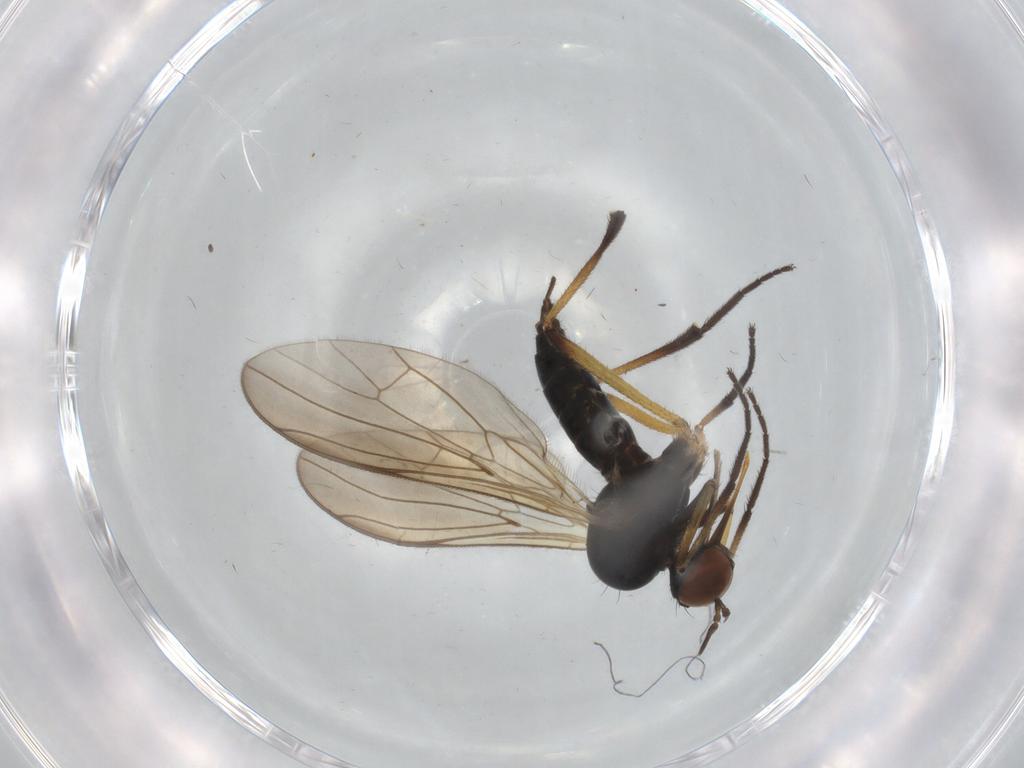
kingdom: Animalia
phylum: Arthropoda
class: Insecta
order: Diptera
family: Empididae
